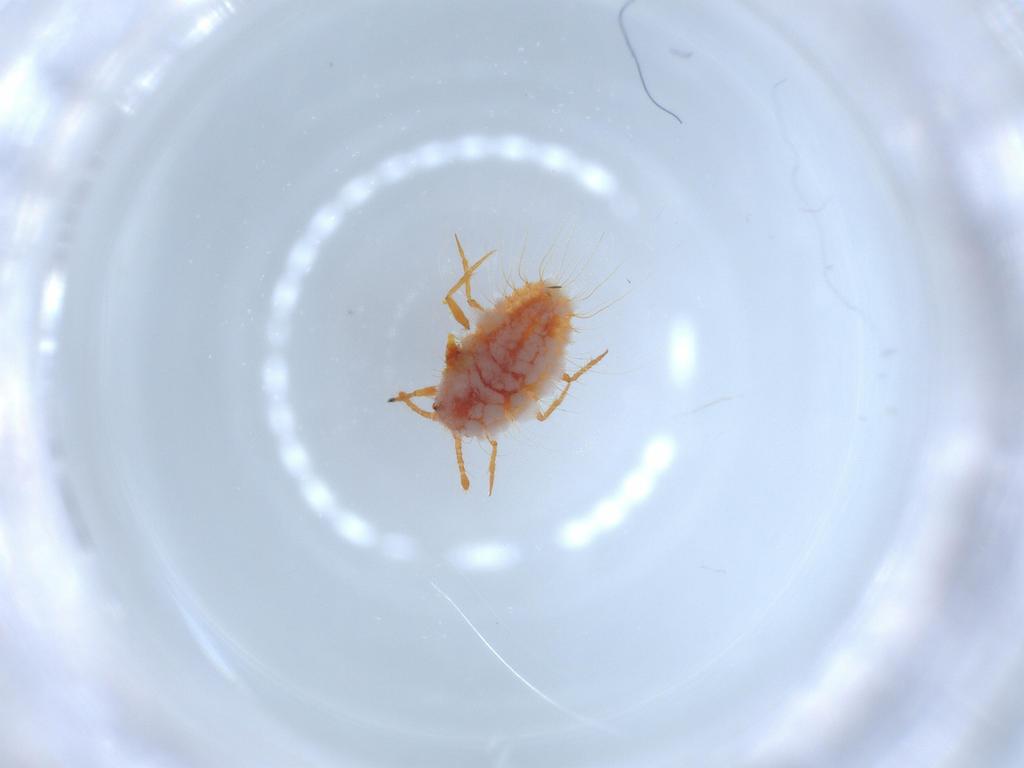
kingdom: Animalia
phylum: Arthropoda
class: Insecta
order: Hemiptera
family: Coccoidea_incertae_sedis
